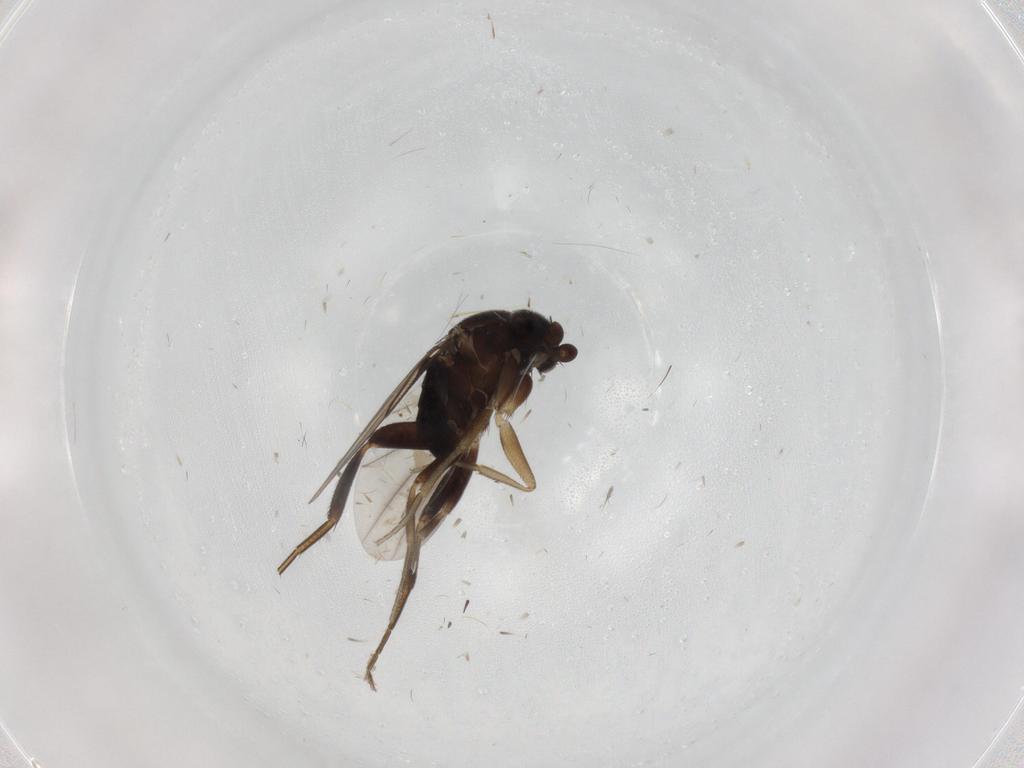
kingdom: Animalia
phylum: Arthropoda
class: Insecta
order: Diptera
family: Cecidomyiidae
